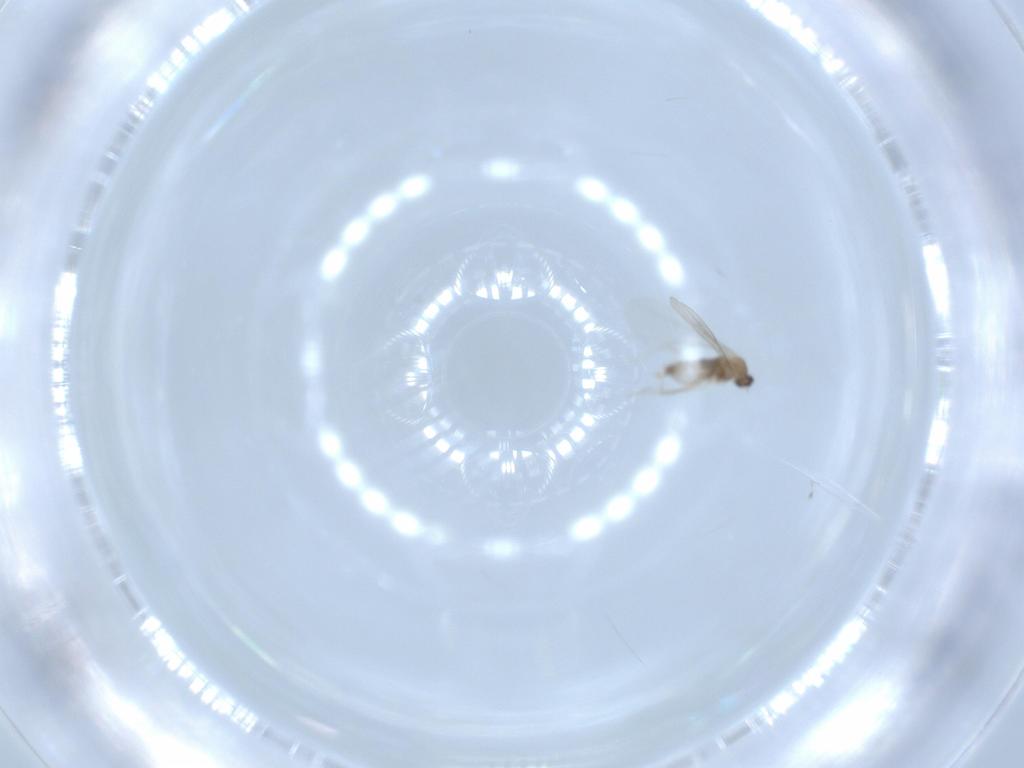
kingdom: Animalia
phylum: Arthropoda
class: Insecta
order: Diptera
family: Cecidomyiidae
